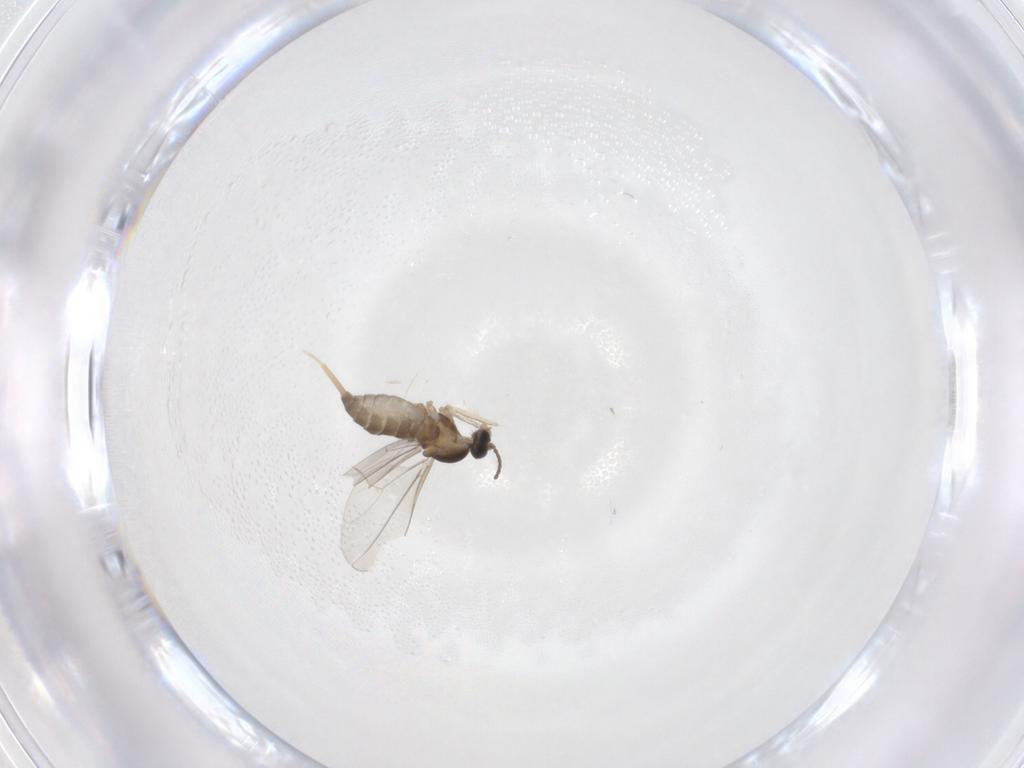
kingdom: Animalia
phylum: Arthropoda
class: Insecta
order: Diptera
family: Cecidomyiidae
